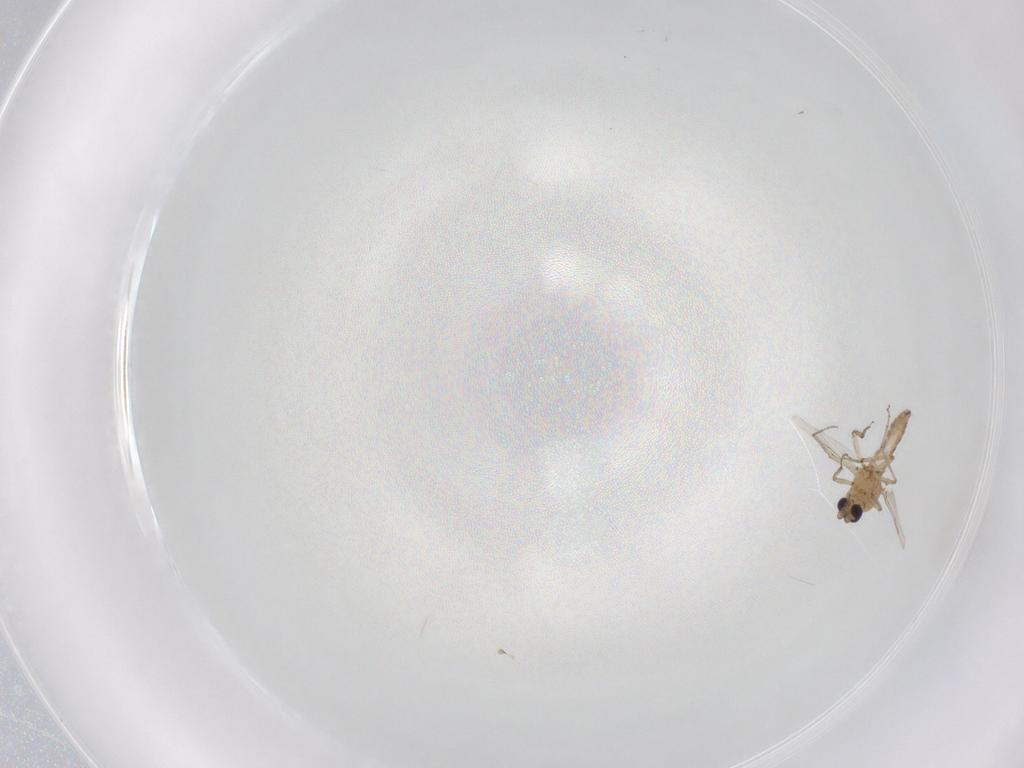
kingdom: Animalia
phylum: Arthropoda
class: Insecta
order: Diptera
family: Ceratopogonidae
